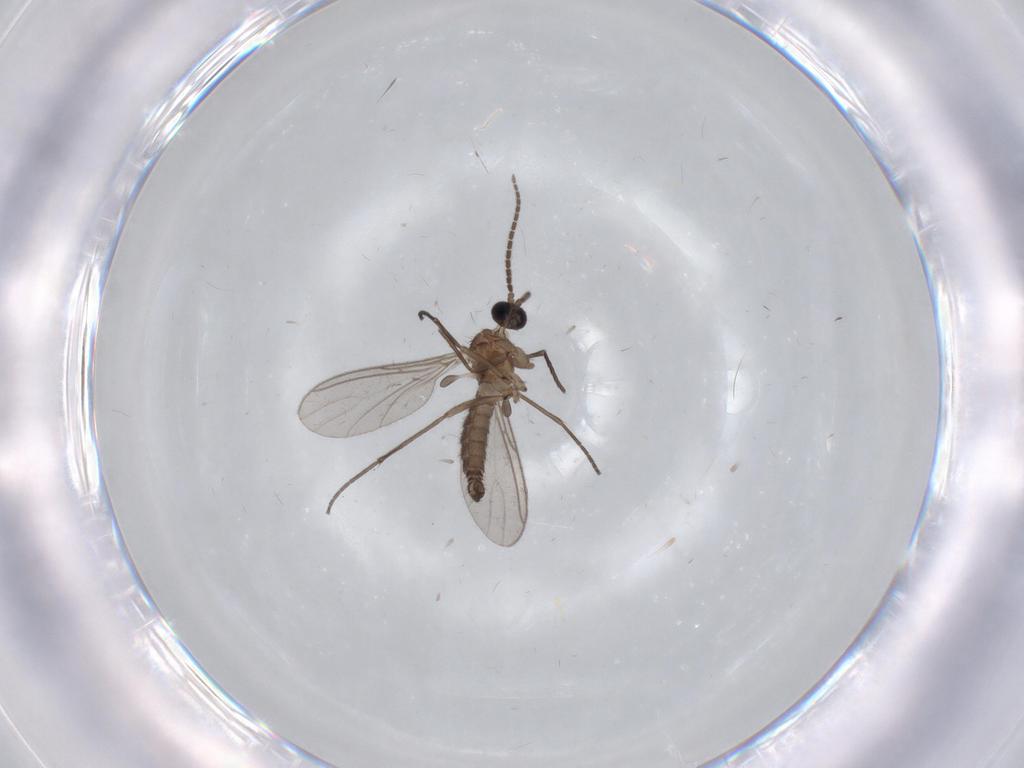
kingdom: Animalia
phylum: Arthropoda
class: Insecta
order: Diptera
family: Sciaridae
